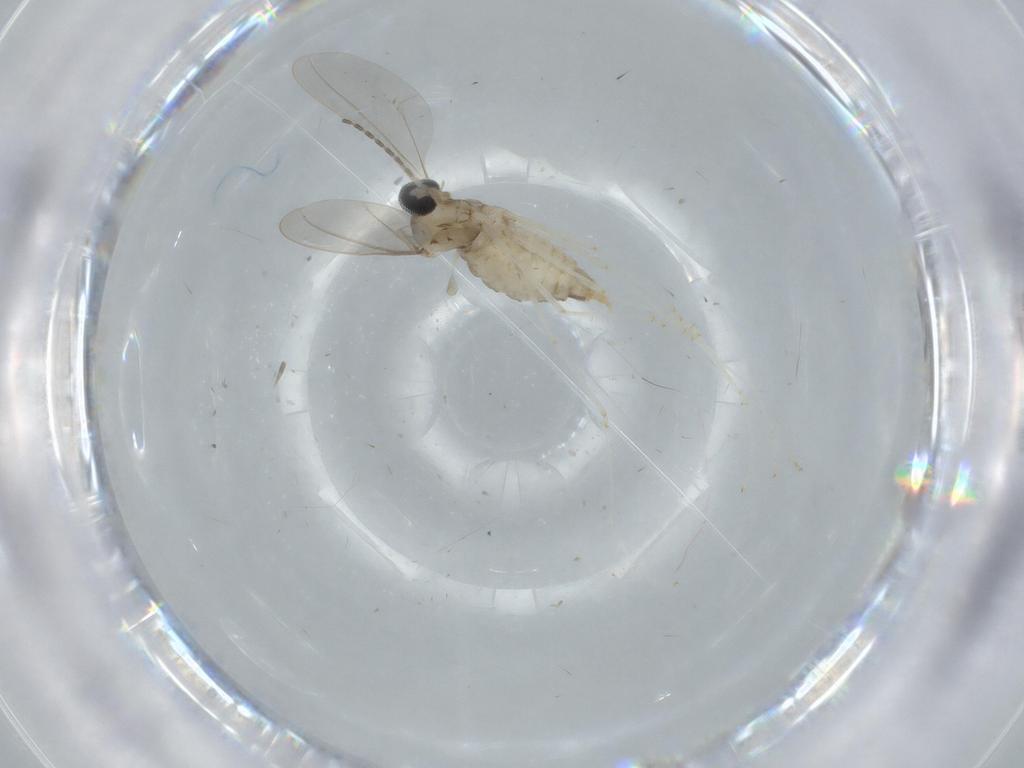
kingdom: Animalia
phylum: Arthropoda
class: Insecta
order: Diptera
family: Cecidomyiidae
